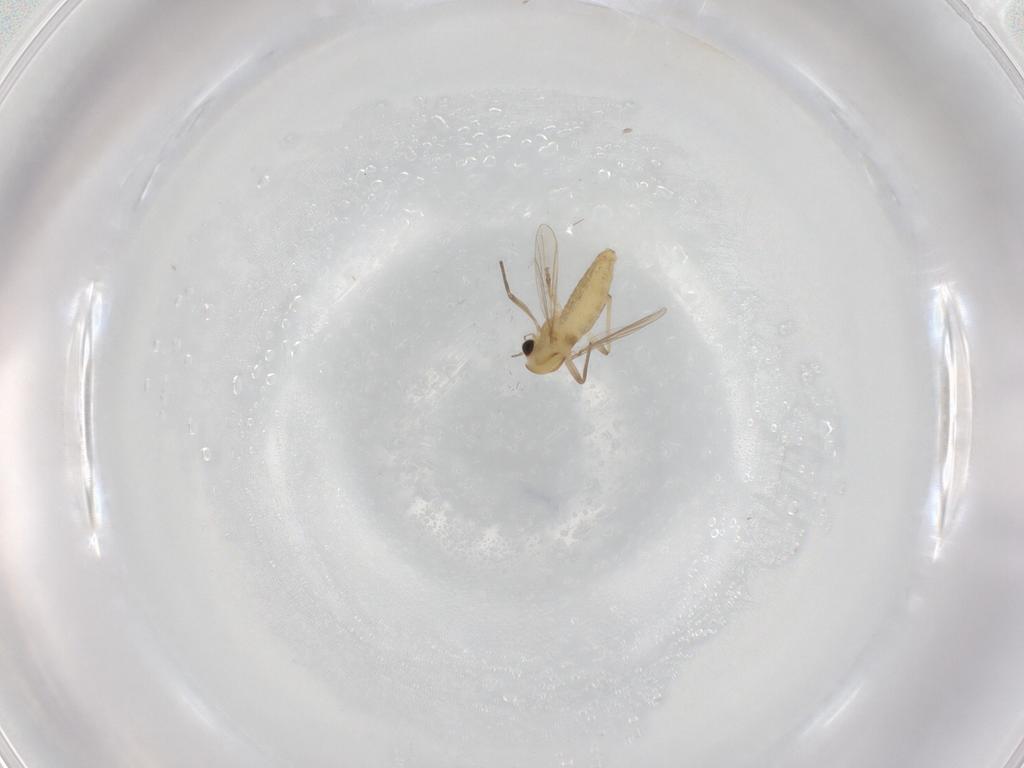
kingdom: Animalia
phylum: Arthropoda
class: Insecta
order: Diptera
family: Chironomidae
